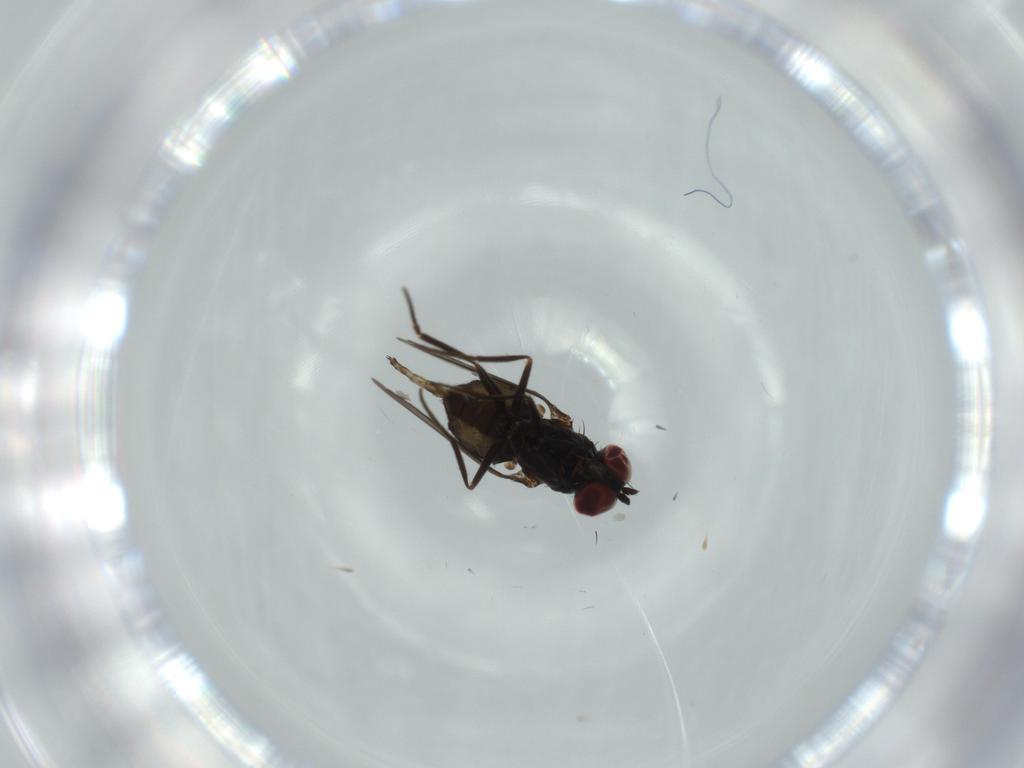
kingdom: Animalia
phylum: Arthropoda
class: Insecta
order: Diptera
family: Dolichopodidae
